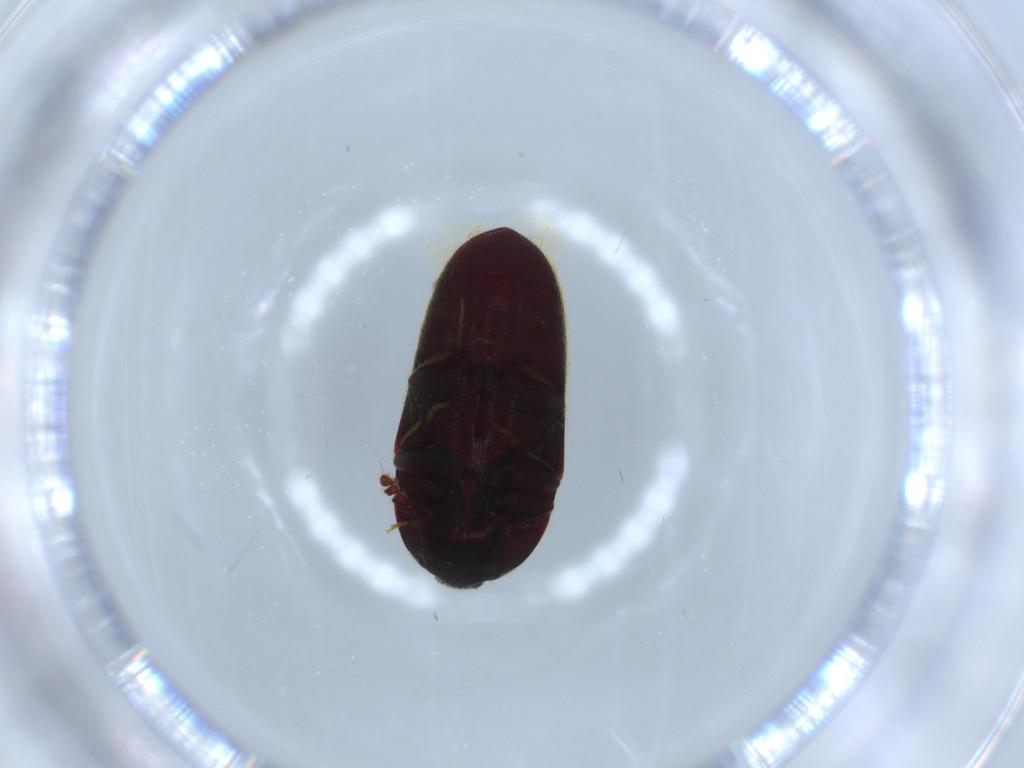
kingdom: Animalia
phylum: Arthropoda
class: Insecta
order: Coleoptera
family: Throscidae
